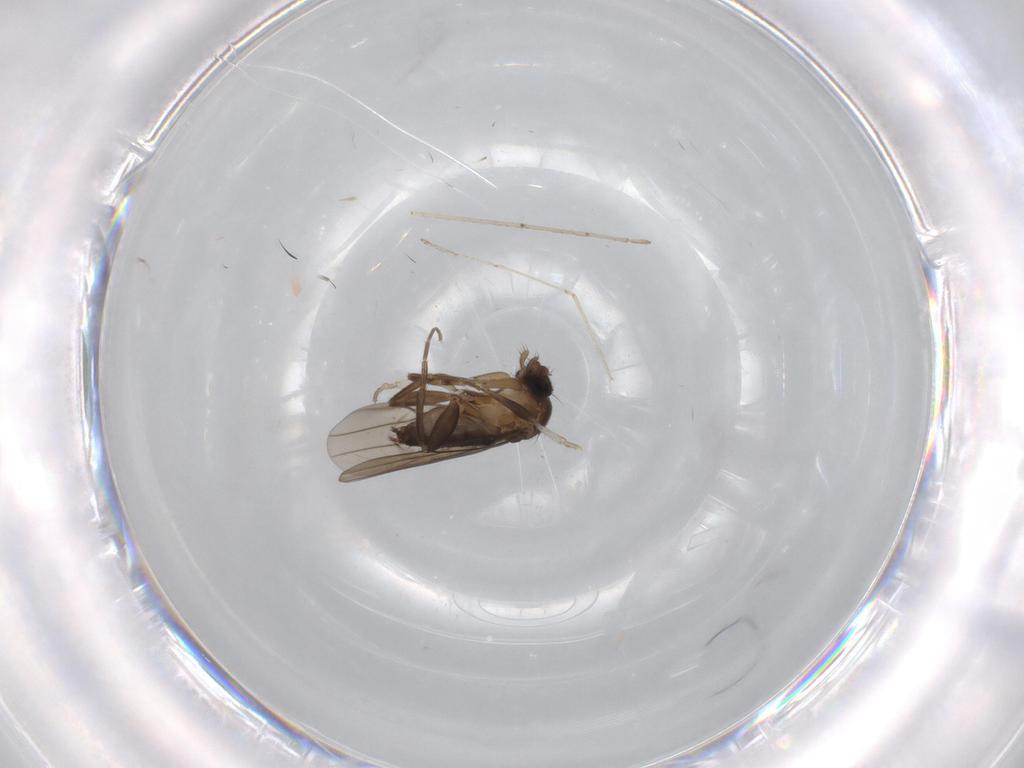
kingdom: Animalia
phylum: Arthropoda
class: Insecta
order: Diptera
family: Cecidomyiidae
